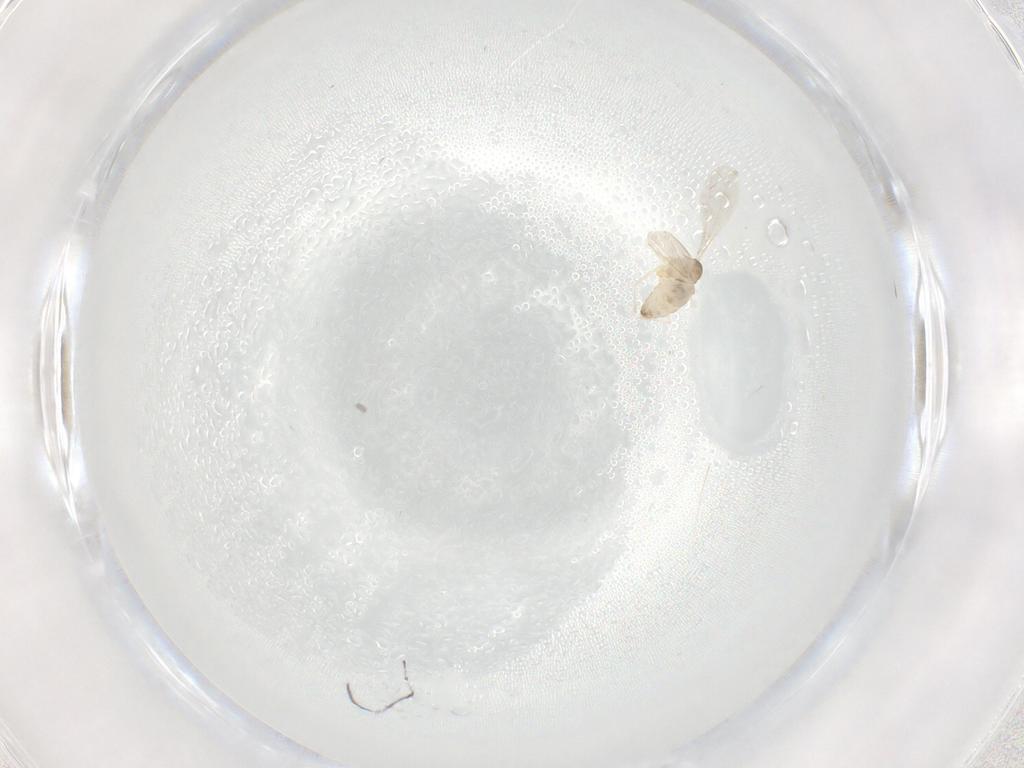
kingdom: Animalia
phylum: Arthropoda
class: Insecta
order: Diptera
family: Cecidomyiidae
